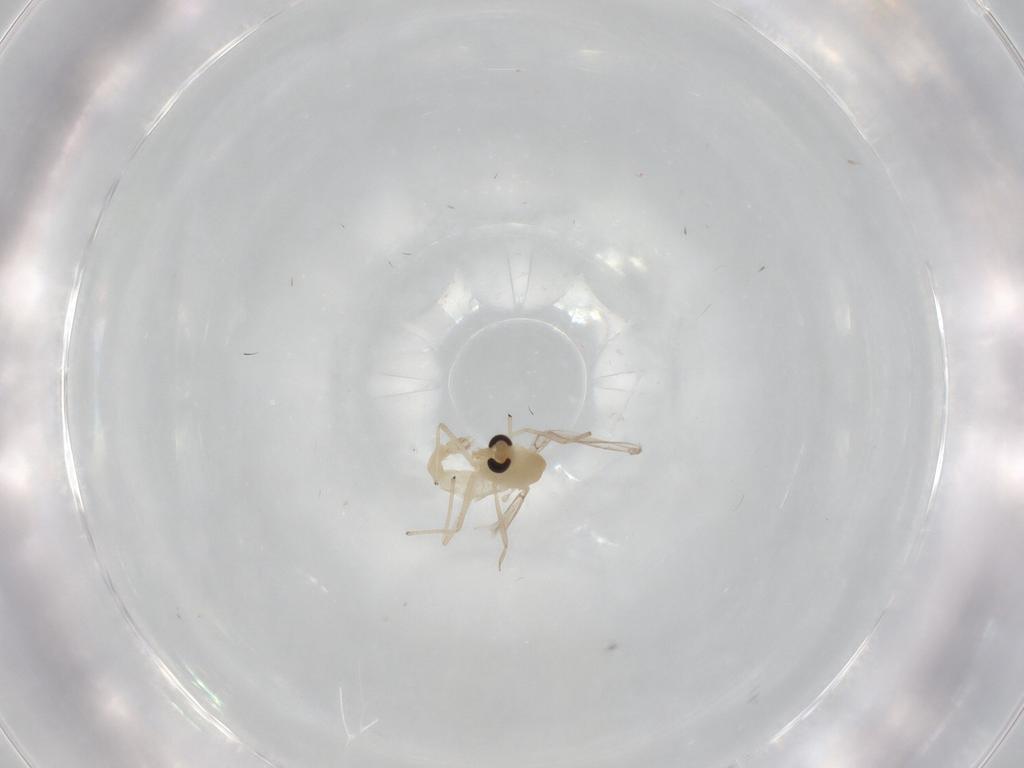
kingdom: Animalia
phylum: Arthropoda
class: Insecta
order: Diptera
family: Chironomidae
